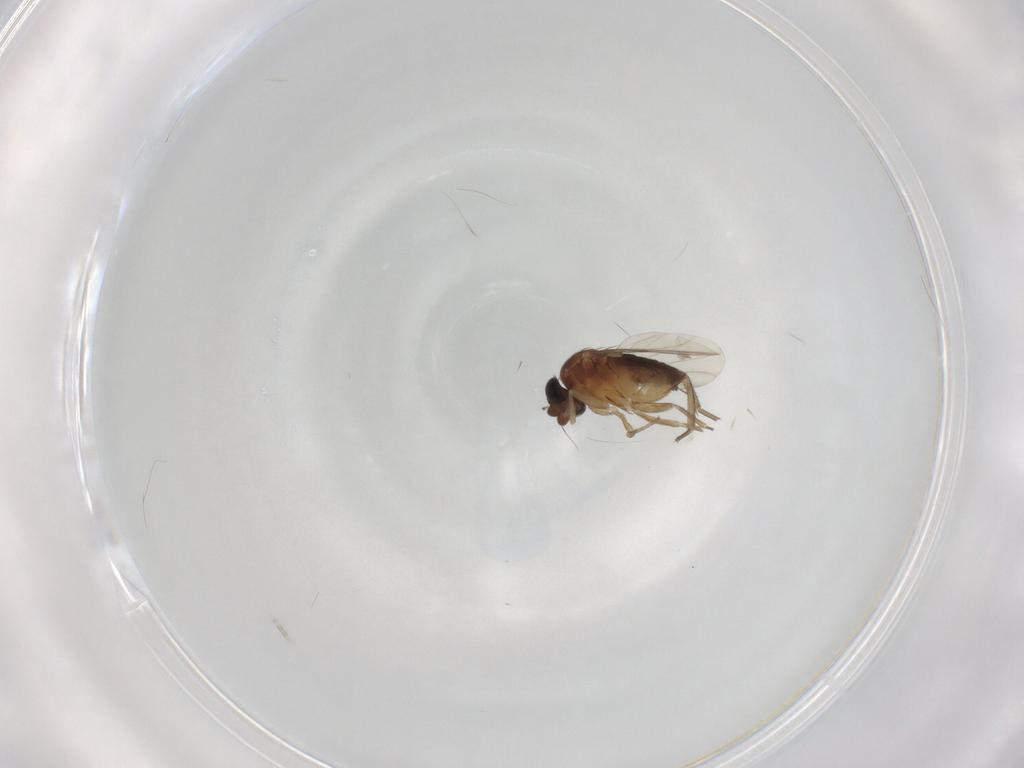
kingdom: Animalia
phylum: Arthropoda
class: Insecta
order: Diptera
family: Phoridae
